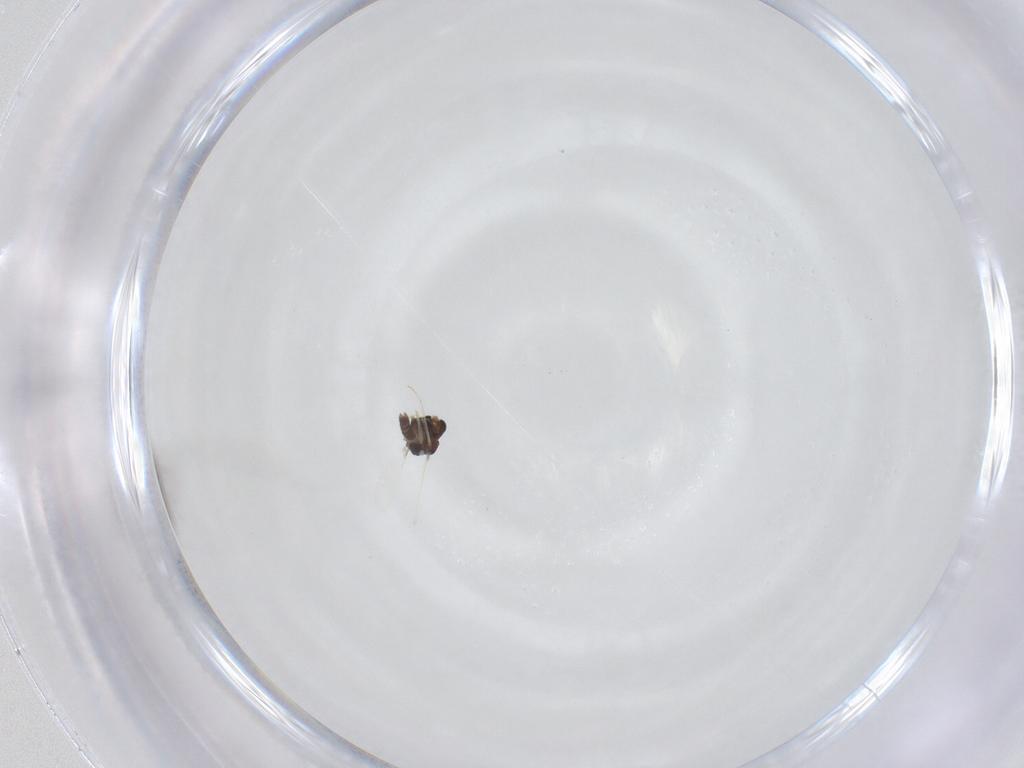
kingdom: Animalia
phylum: Arthropoda
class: Insecta
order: Diptera
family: Chironomidae
